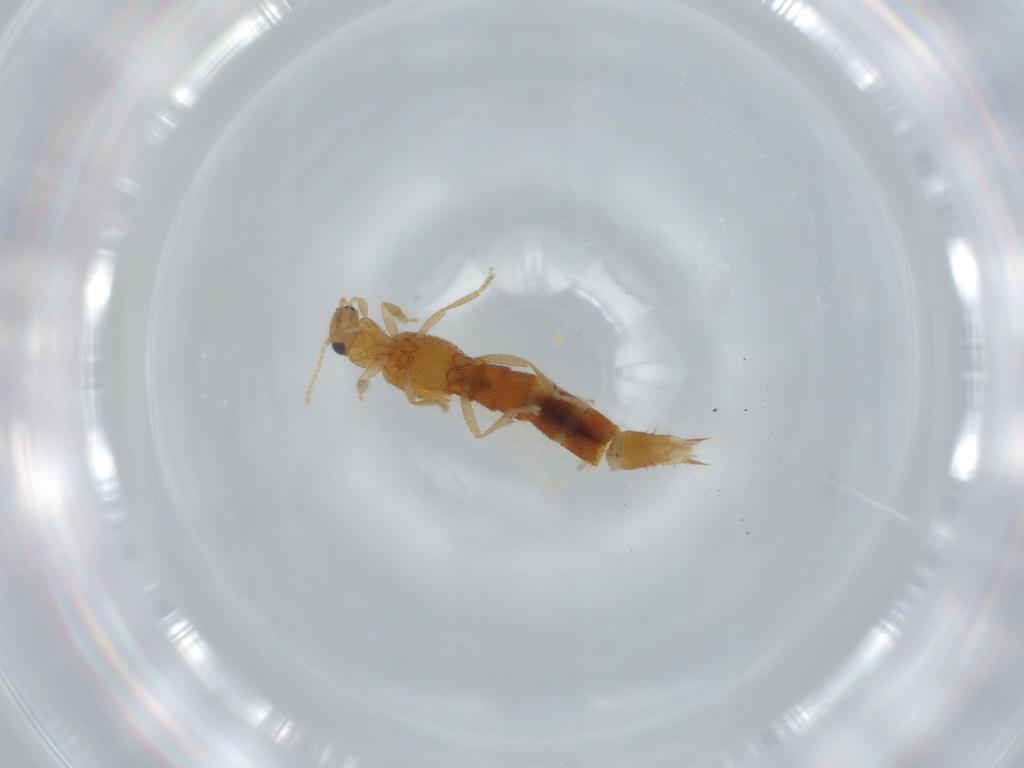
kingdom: Animalia
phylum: Arthropoda
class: Insecta
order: Coleoptera
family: Staphylinidae
